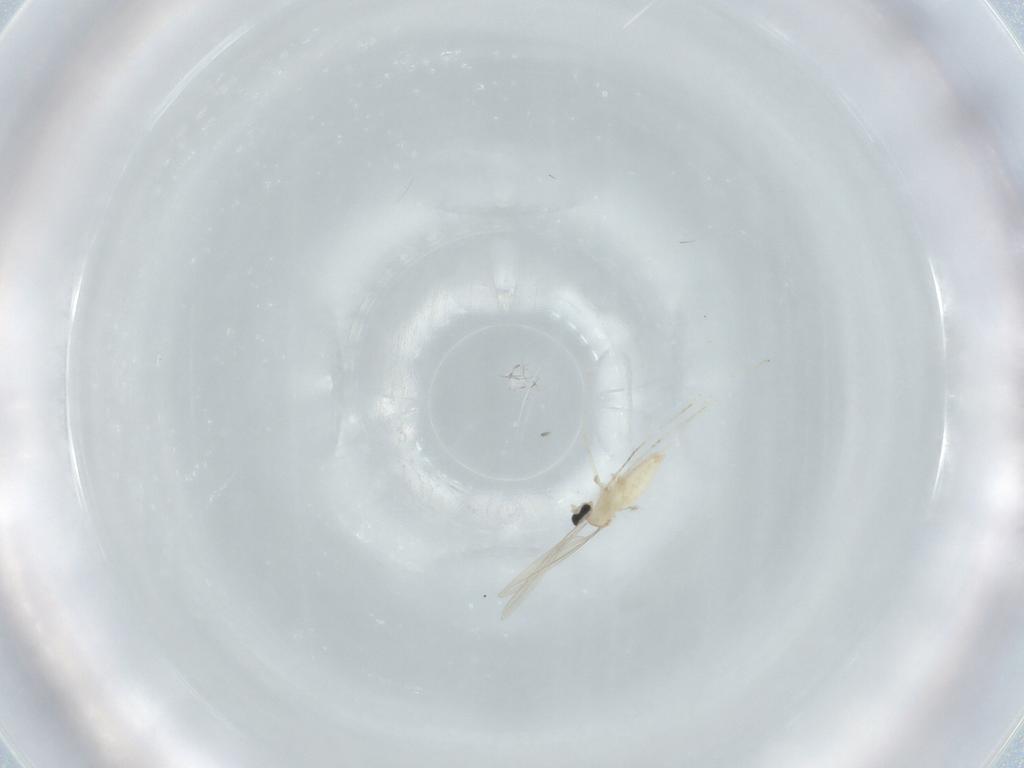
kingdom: Animalia
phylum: Arthropoda
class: Insecta
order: Diptera
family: Cecidomyiidae
